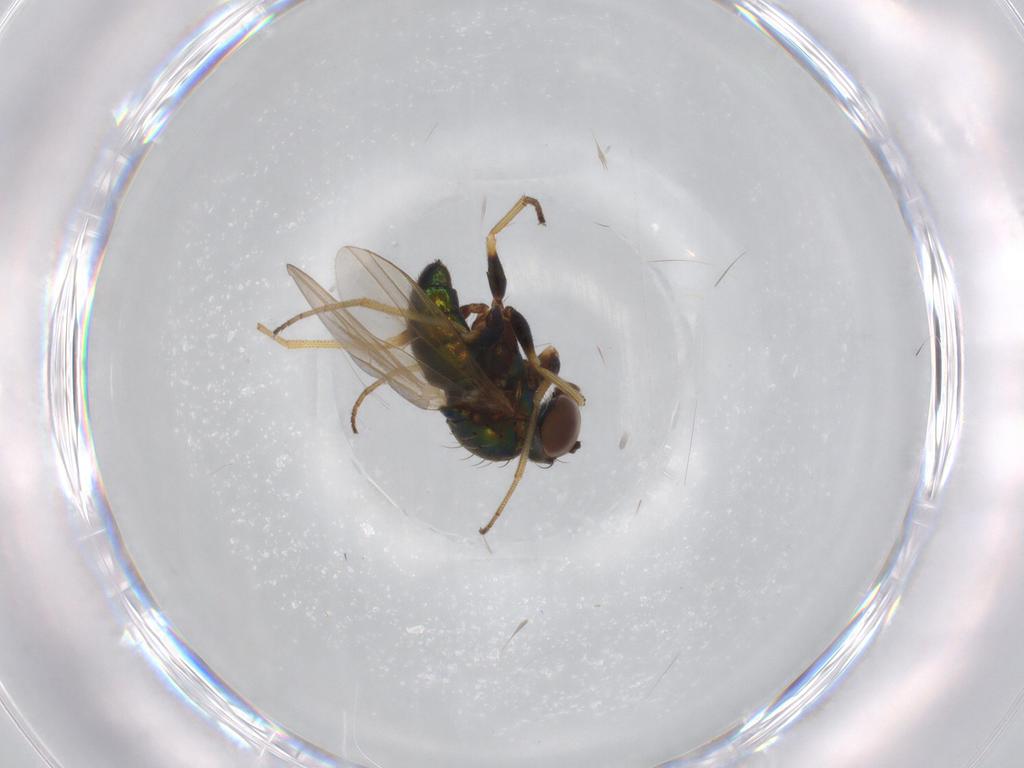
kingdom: Animalia
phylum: Arthropoda
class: Insecta
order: Diptera
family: Dolichopodidae
